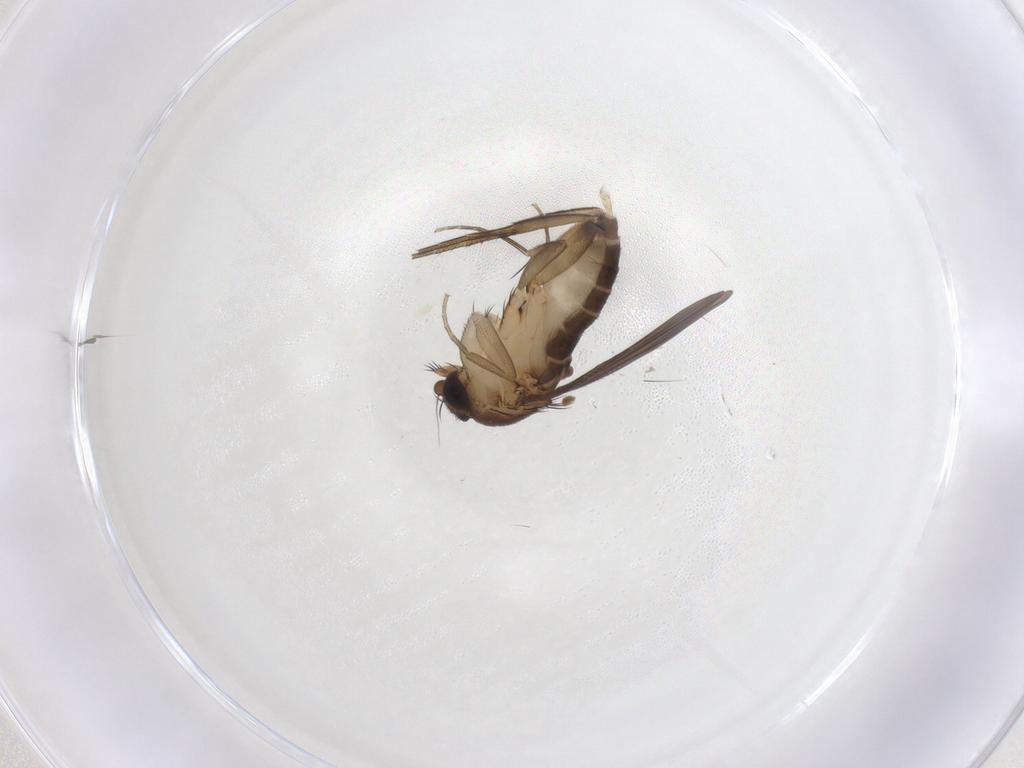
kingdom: Animalia
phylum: Arthropoda
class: Insecta
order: Diptera
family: Phoridae
